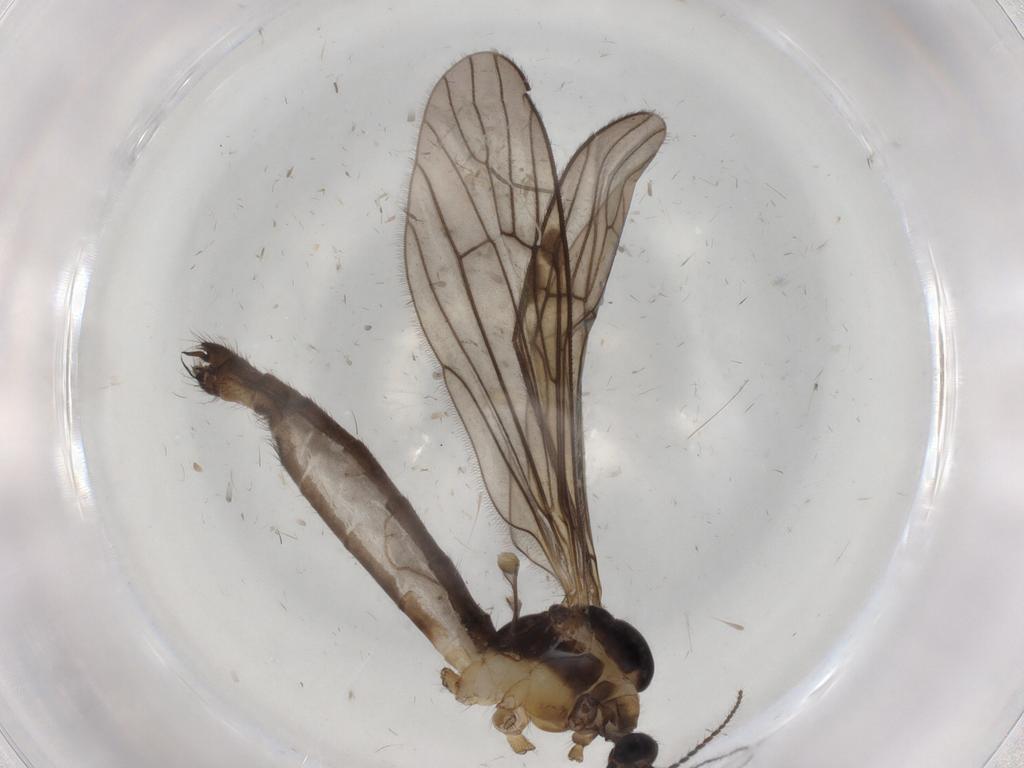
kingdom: Animalia
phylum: Arthropoda
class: Insecta
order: Diptera
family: Limoniidae
